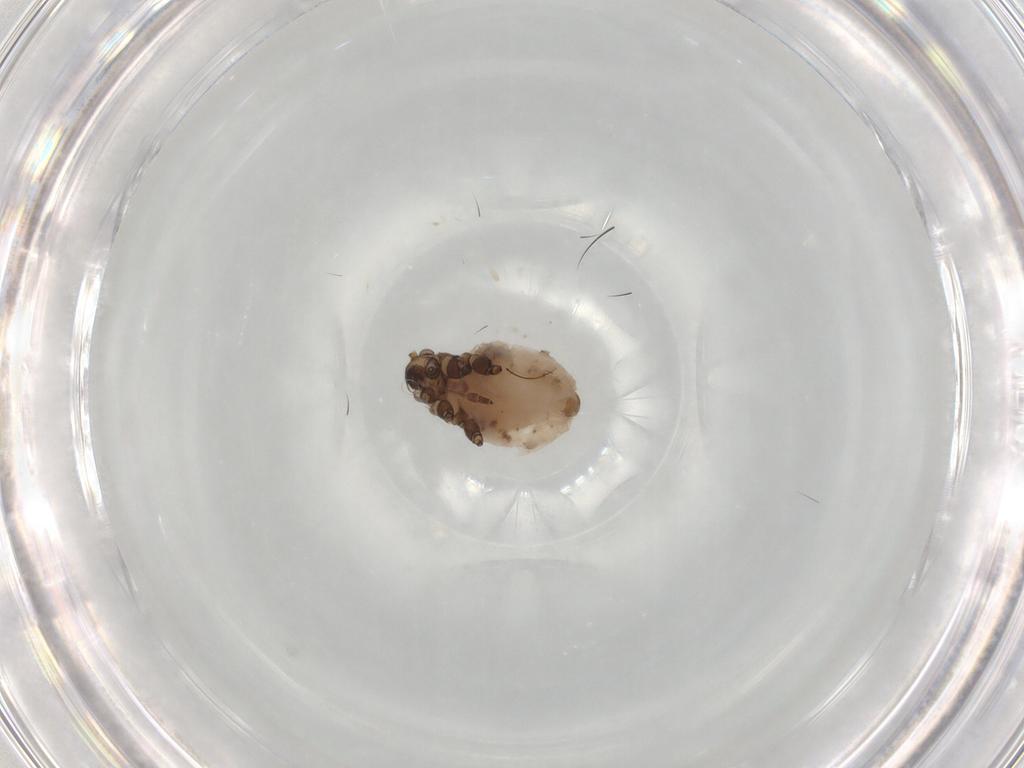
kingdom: Animalia
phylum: Arthropoda
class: Insecta
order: Hemiptera
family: Aphididae
